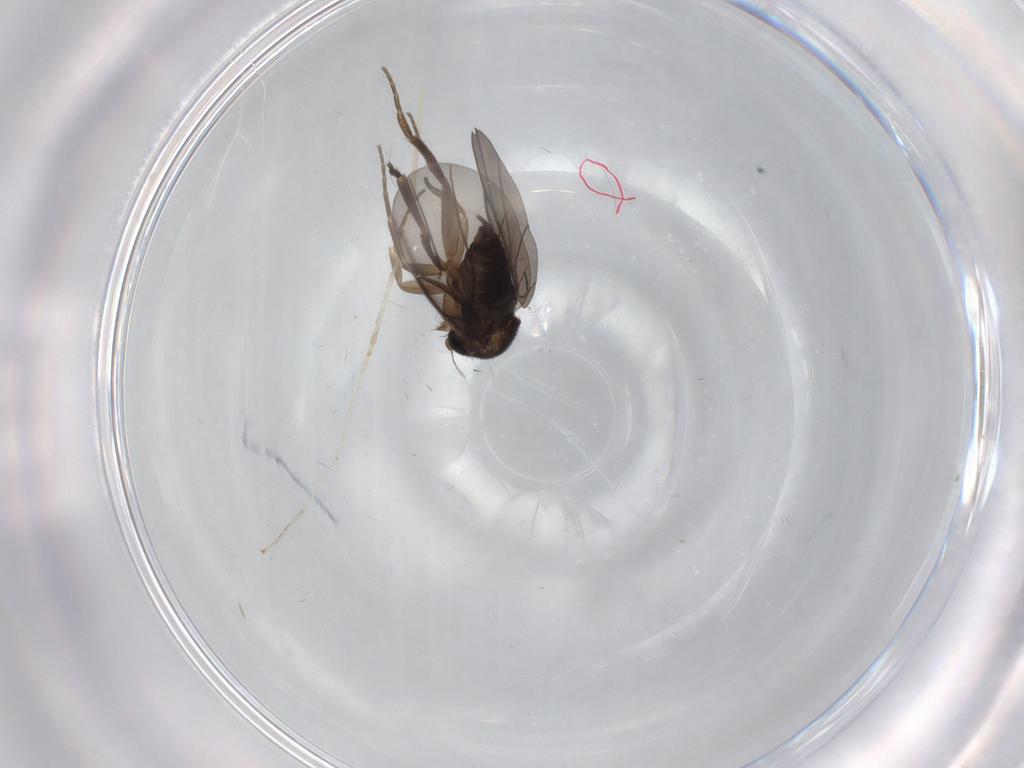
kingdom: Animalia
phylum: Arthropoda
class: Insecta
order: Diptera
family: Phoridae
